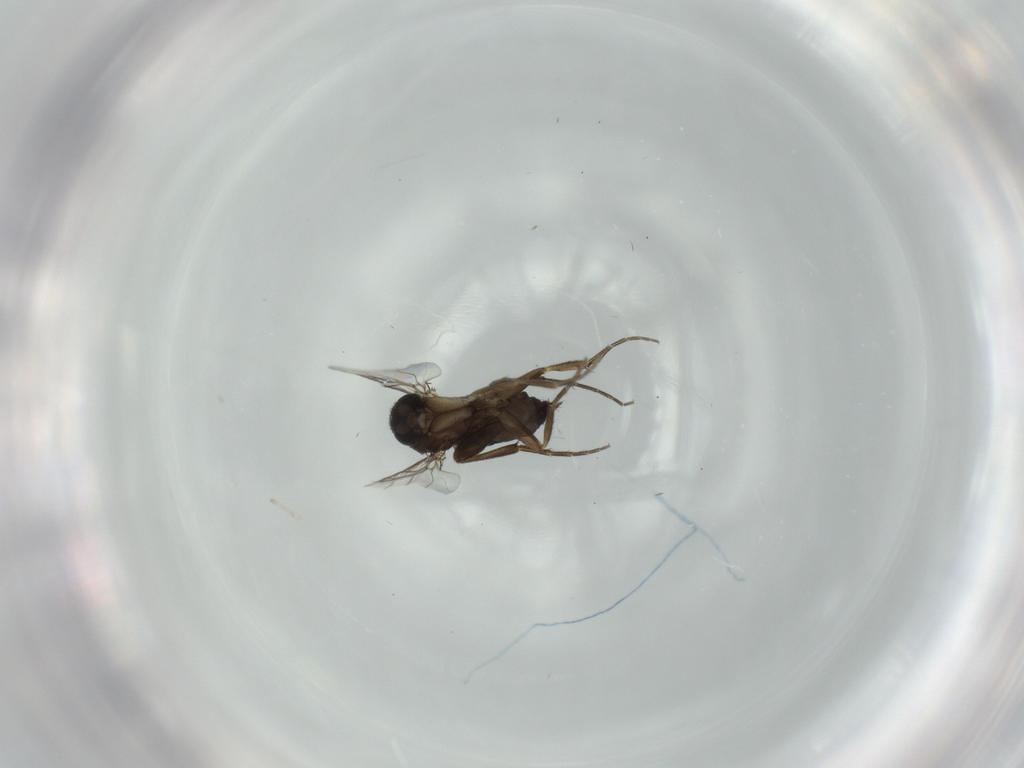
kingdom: Animalia
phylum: Arthropoda
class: Insecta
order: Diptera
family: Phoridae
